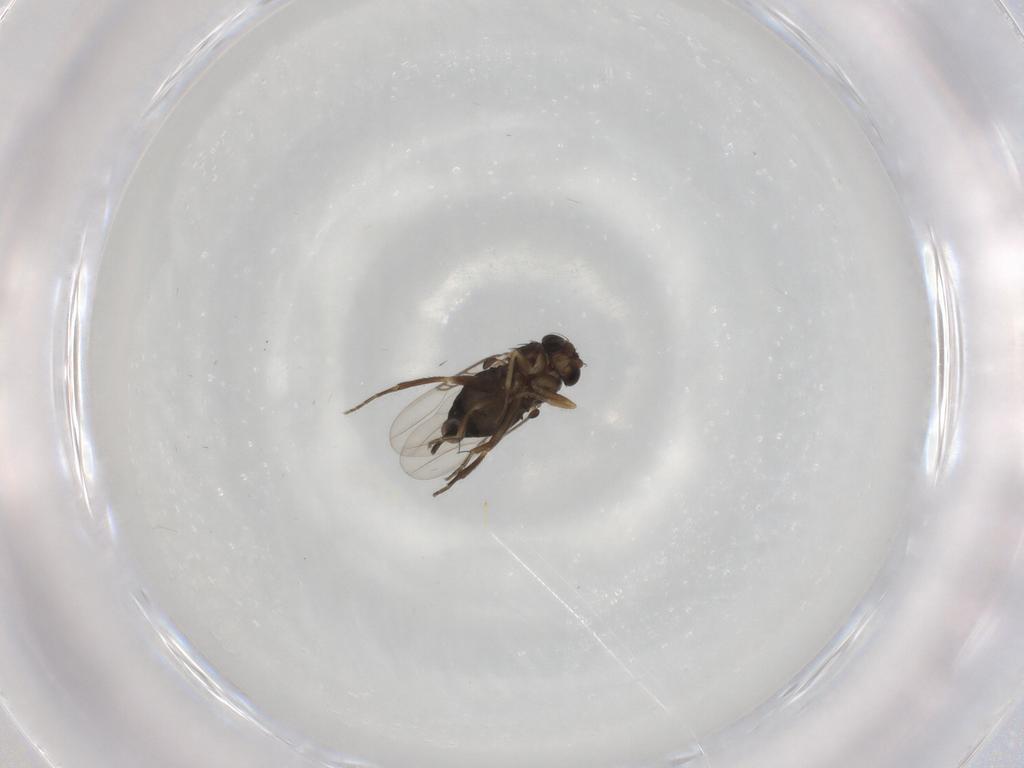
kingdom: Animalia
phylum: Arthropoda
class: Insecta
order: Diptera
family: Phoridae
